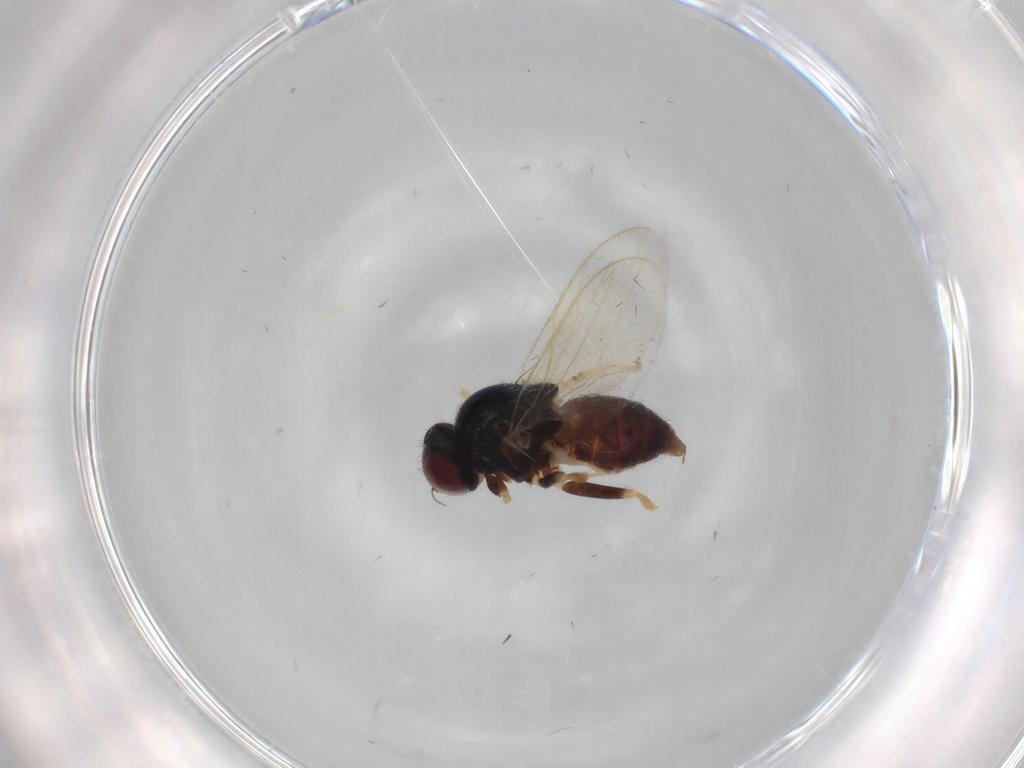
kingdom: Animalia
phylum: Arthropoda
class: Insecta
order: Diptera
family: Chloropidae
